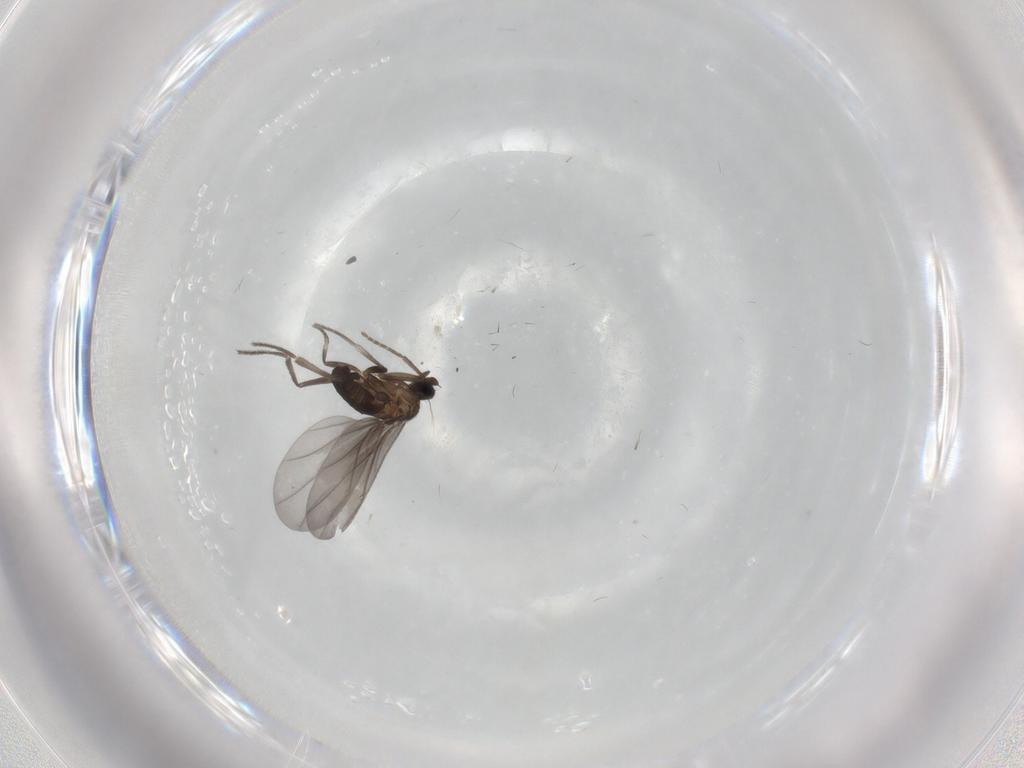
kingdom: Animalia
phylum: Arthropoda
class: Insecta
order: Diptera
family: Phoridae
